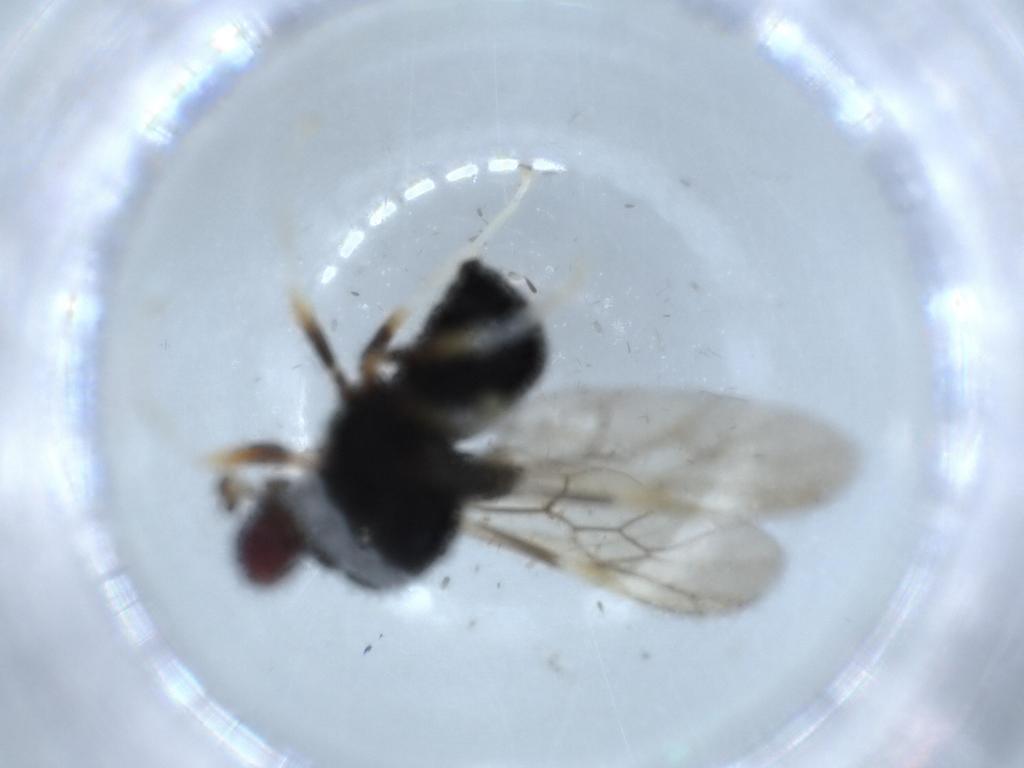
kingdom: Animalia
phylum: Arthropoda
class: Insecta
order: Diptera
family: Stratiomyidae
